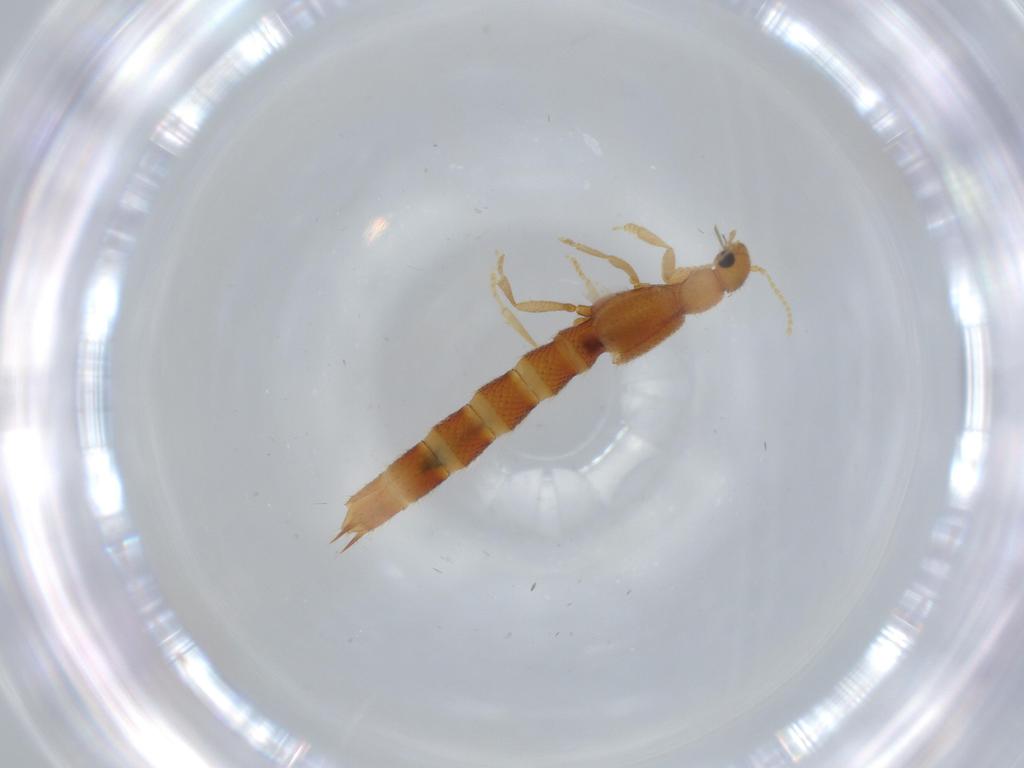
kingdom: Animalia
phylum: Arthropoda
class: Insecta
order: Coleoptera
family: Staphylinidae
